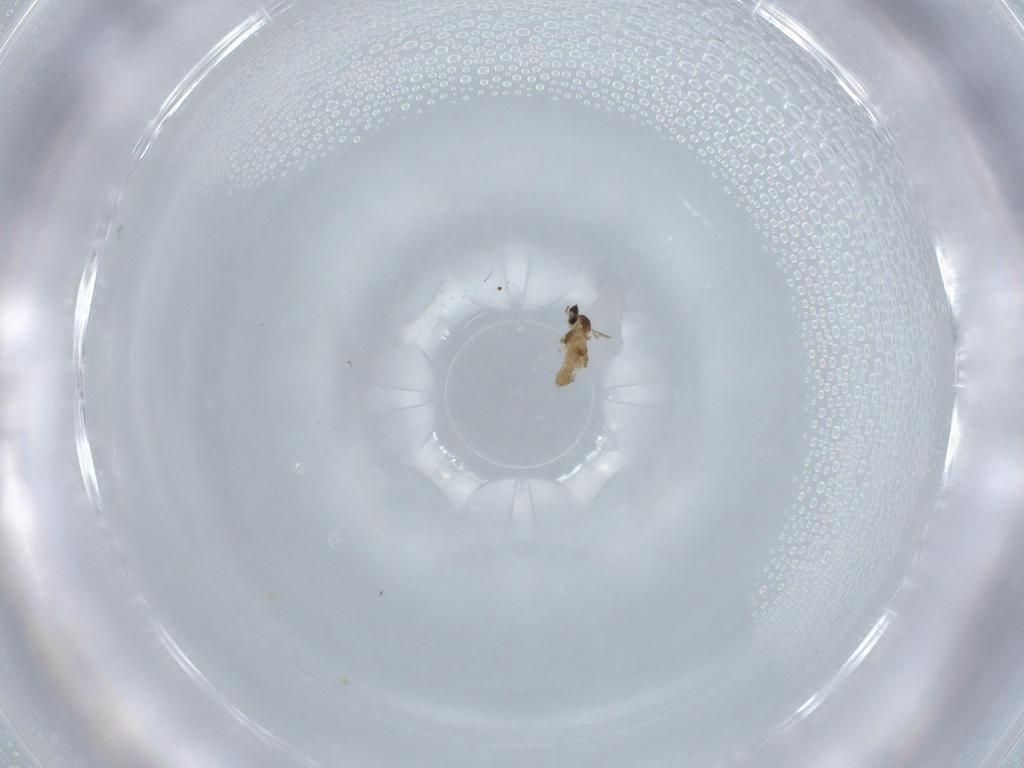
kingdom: Animalia
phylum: Arthropoda
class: Insecta
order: Diptera
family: Cecidomyiidae
